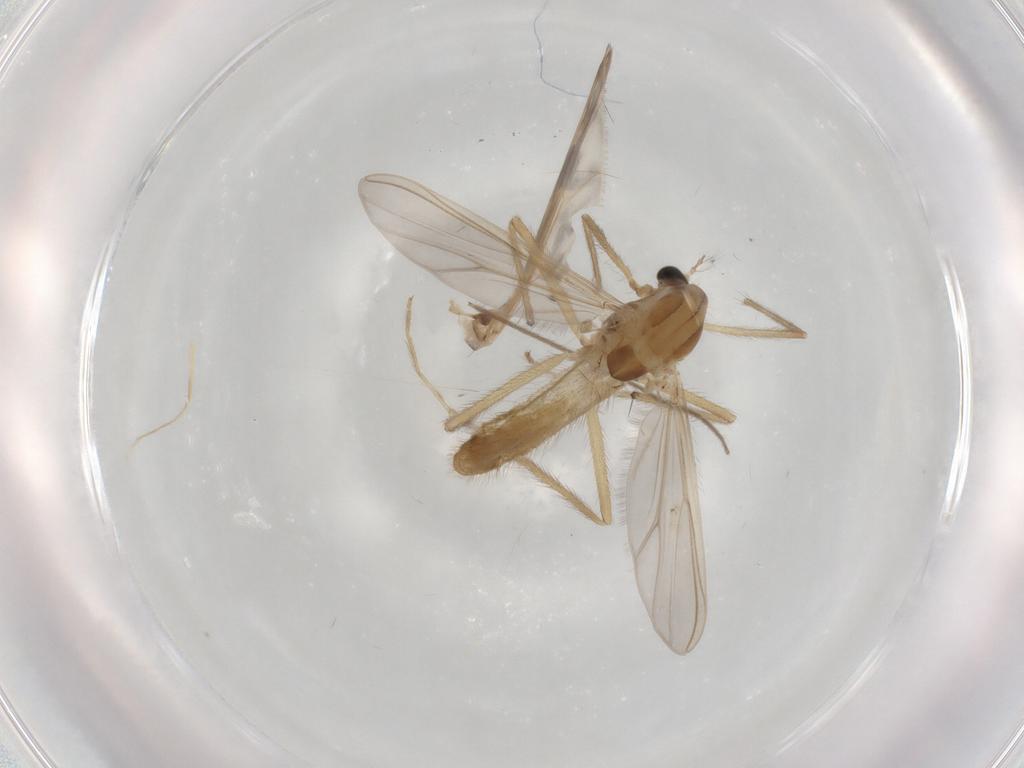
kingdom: Animalia
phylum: Arthropoda
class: Insecta
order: Diptera
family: Chironomidae
